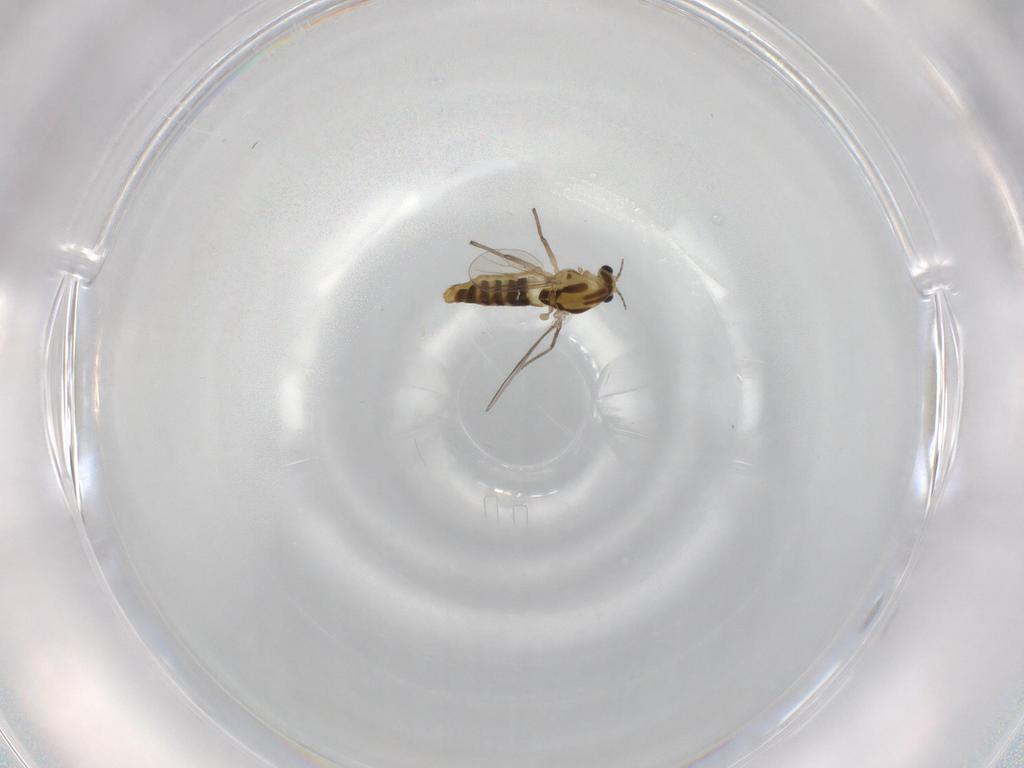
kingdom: Animalia
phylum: Arthropoda
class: Insecta
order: Diptera
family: Chironomidae
